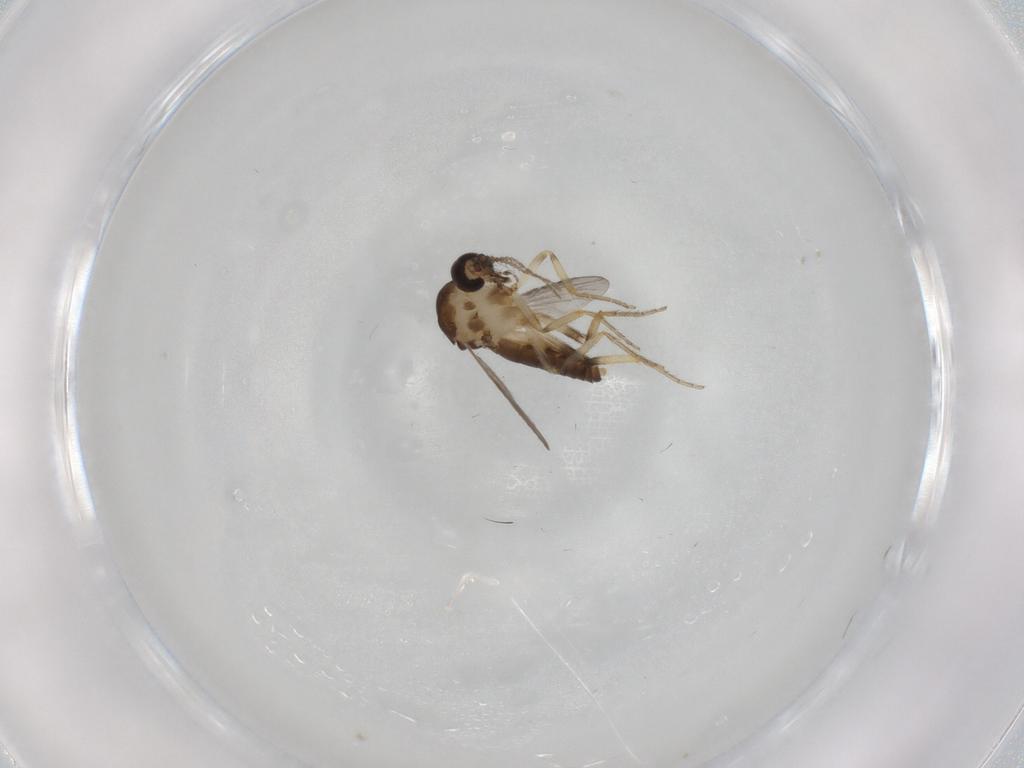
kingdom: Animalia
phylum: Arthropoda
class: Insecta
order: Diptera
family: Ceratopogonidae
